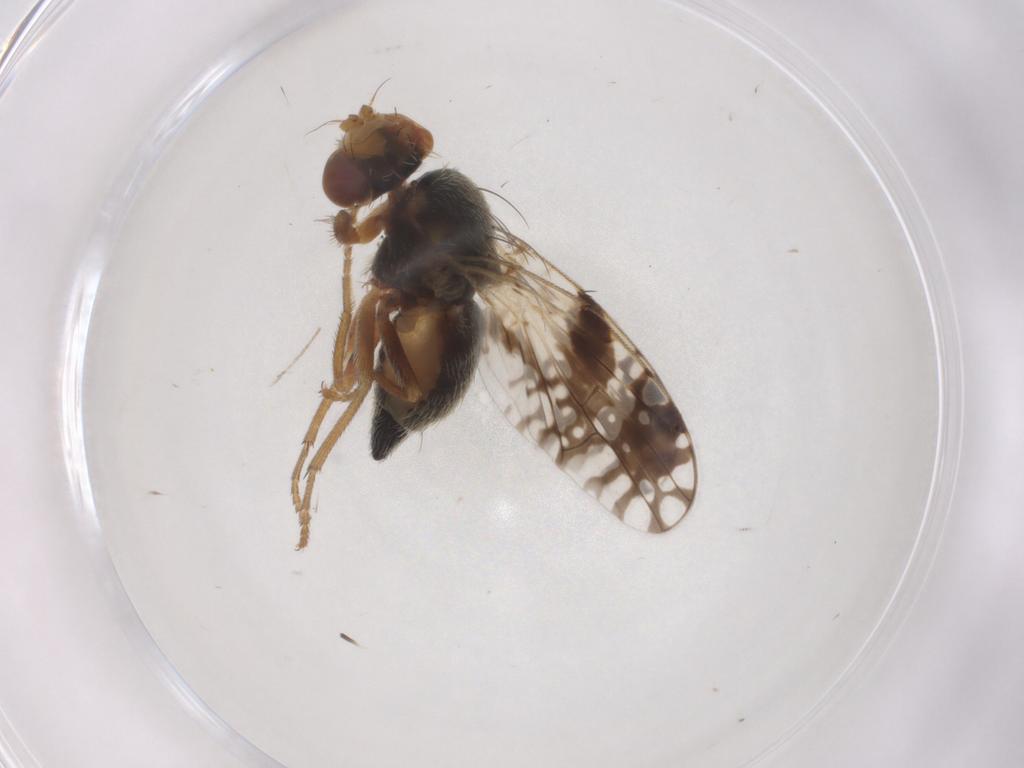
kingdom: Animalia
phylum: Arthropoda
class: Insecta
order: Diptera
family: Tephritidae
